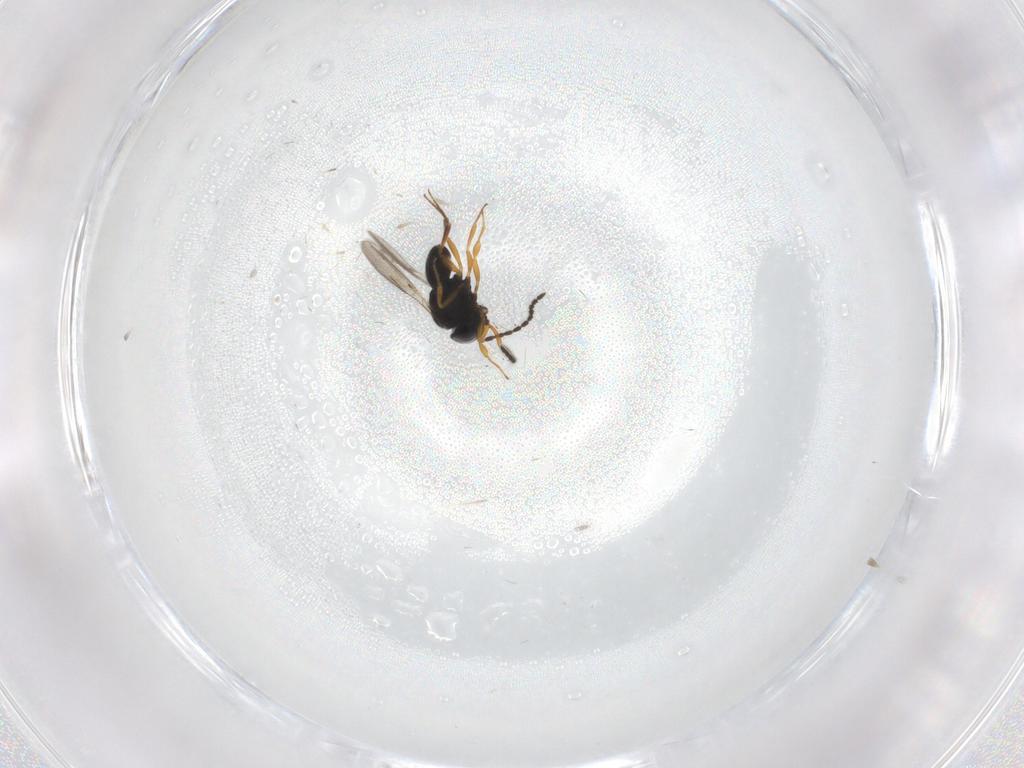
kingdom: Animalia
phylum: Arthropoda
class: Insecta
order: Hymenoptera
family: Scelionidae
